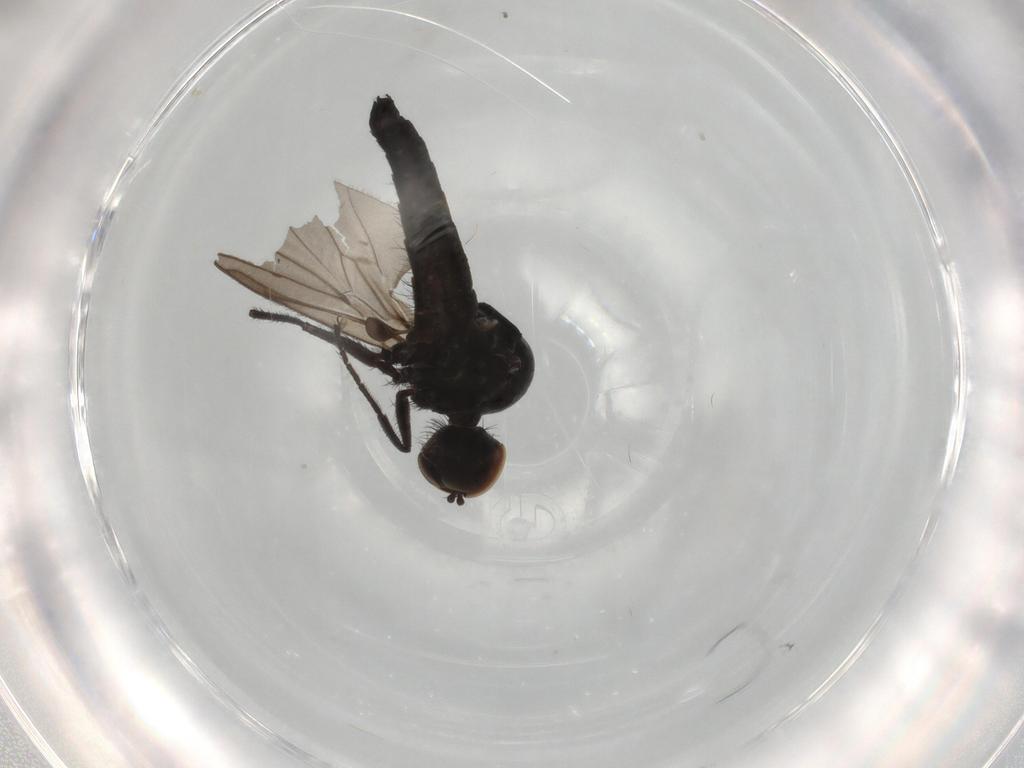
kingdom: Animalia
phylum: Arthropoda
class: Insecta
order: Diptera
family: Hybotidae
